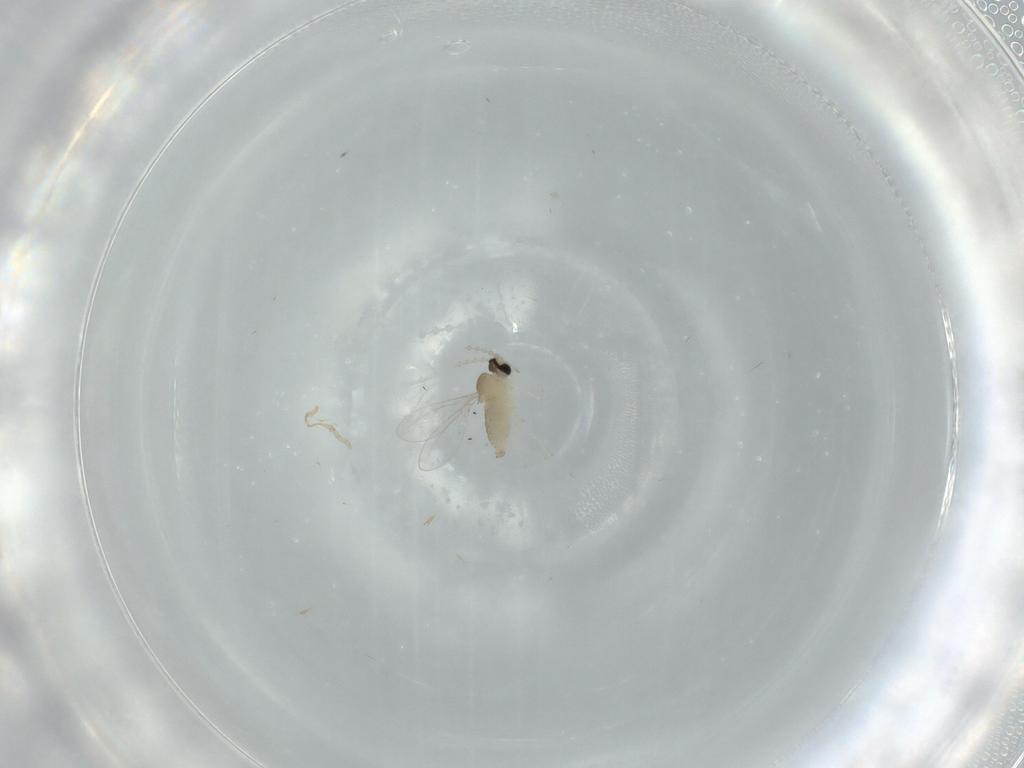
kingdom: Animalia
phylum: Arthropoda
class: Insecta
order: Diptera
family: Cecidomyiidae
